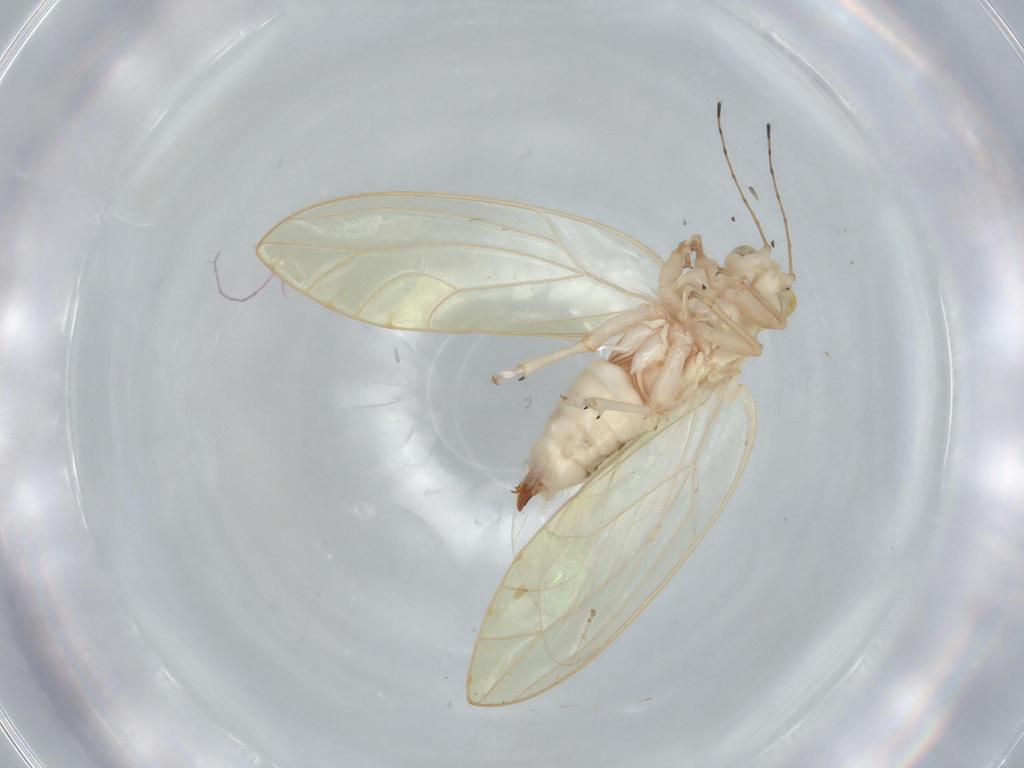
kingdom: Animalia
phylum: Arthropoda
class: Insecta
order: Hemiptera
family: Triozidae
